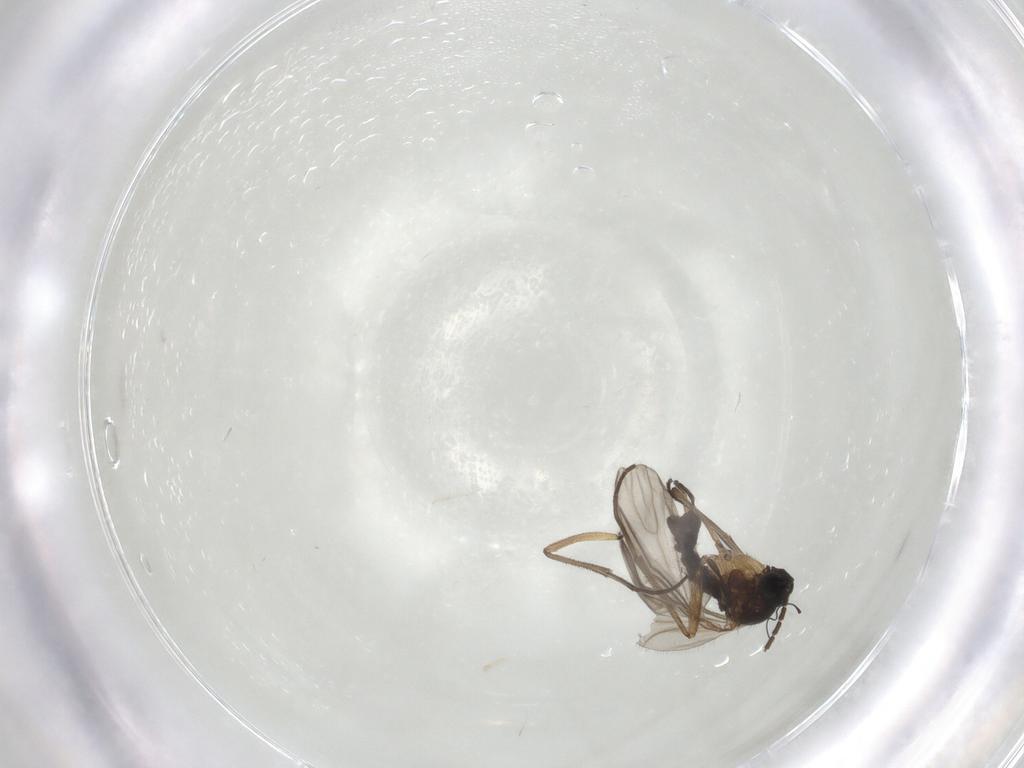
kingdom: Animalia
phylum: Arthropoda
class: Insecta
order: Diptera
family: Sciaridae
